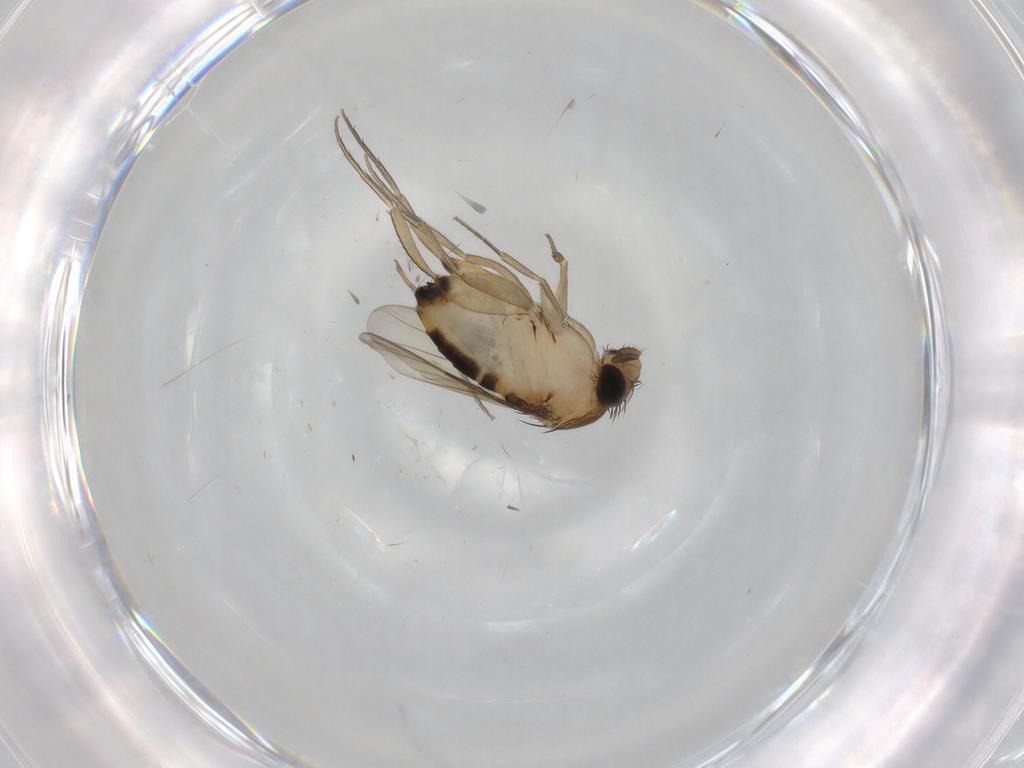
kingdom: Animalia
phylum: Arthropoda
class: Insecta
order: Diptera
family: Phoridae
